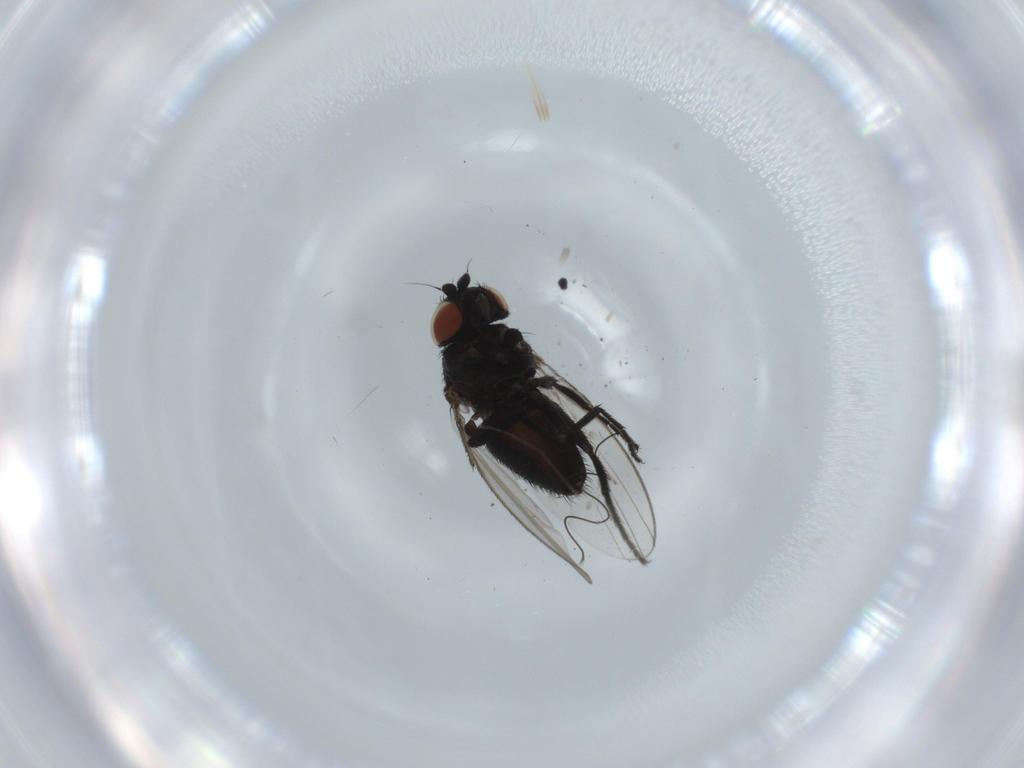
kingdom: Animalia
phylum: Arthropoda
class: Insecta
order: Diptera
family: Phoridae
